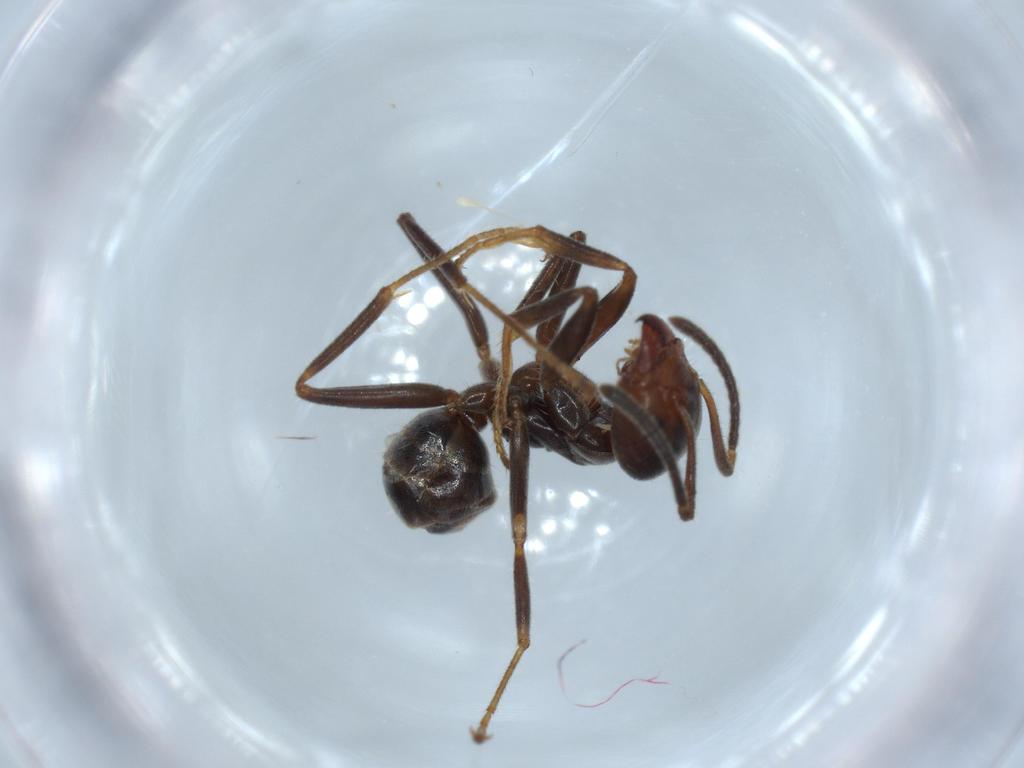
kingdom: Animalia
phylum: Arthropoda
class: Insecta
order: Hymenoptera
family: Formicidae
